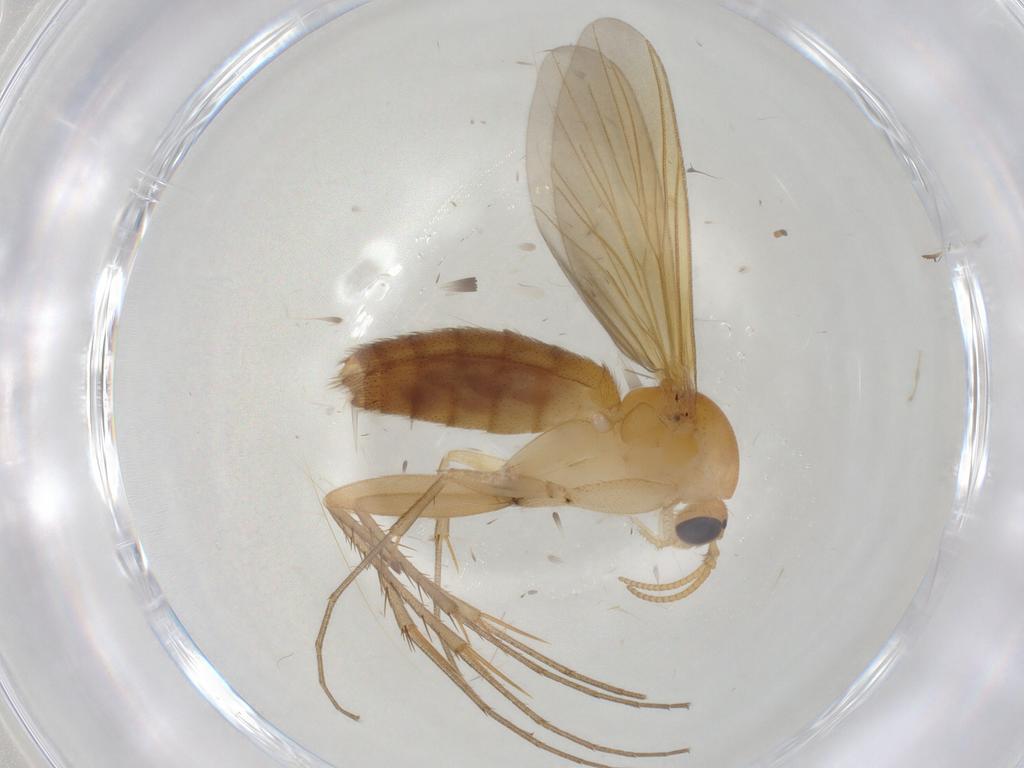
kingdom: Animalia
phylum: Arthropoda
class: Insecta
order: Diptera
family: Mycetophilidae
